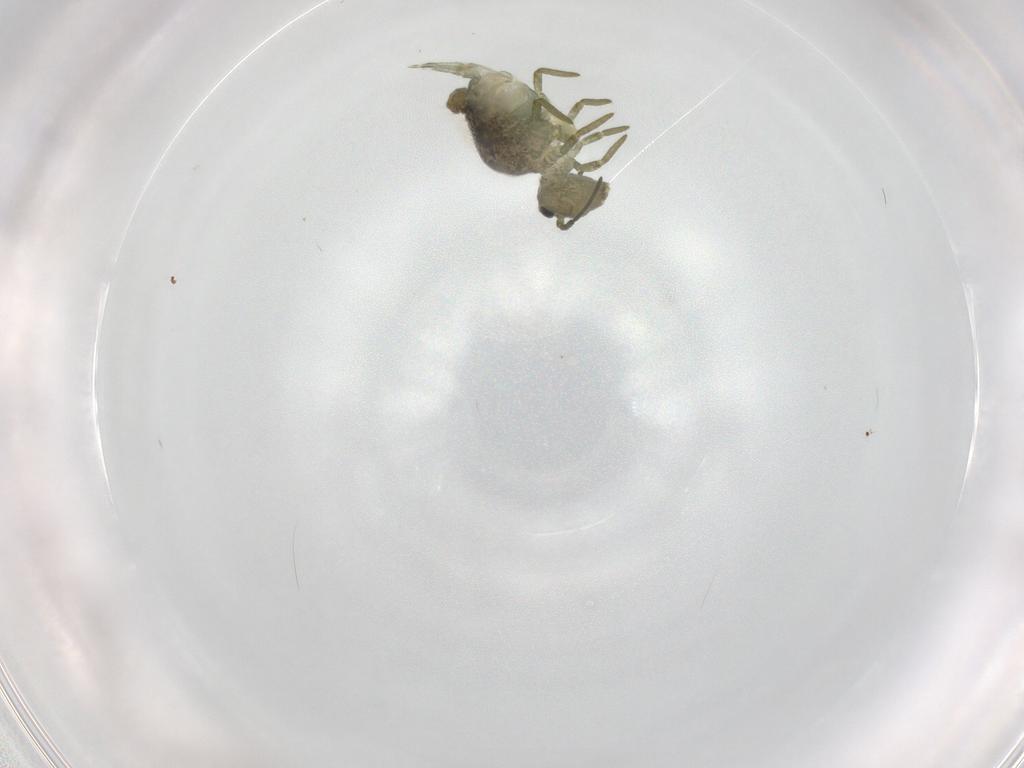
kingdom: Animalia
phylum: Arthropoda
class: Collembola
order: Symphypleona
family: Sminthuridae
